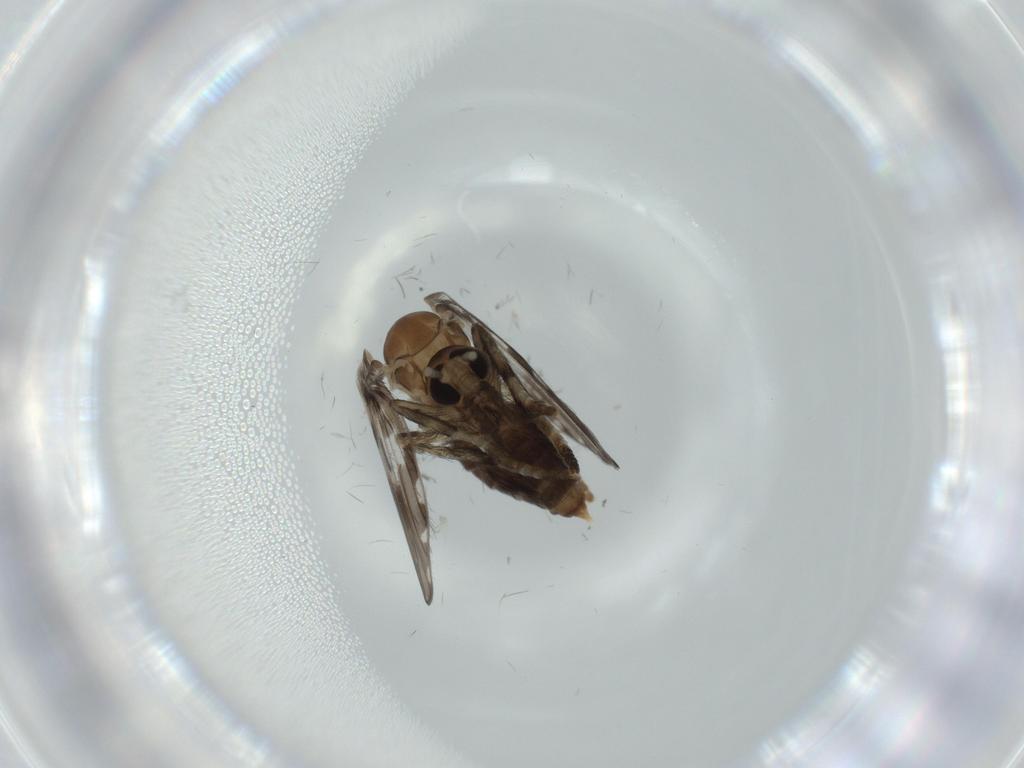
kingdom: Animalia
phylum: Arthropoda
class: Insecta
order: Diptera
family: Psychodidae
